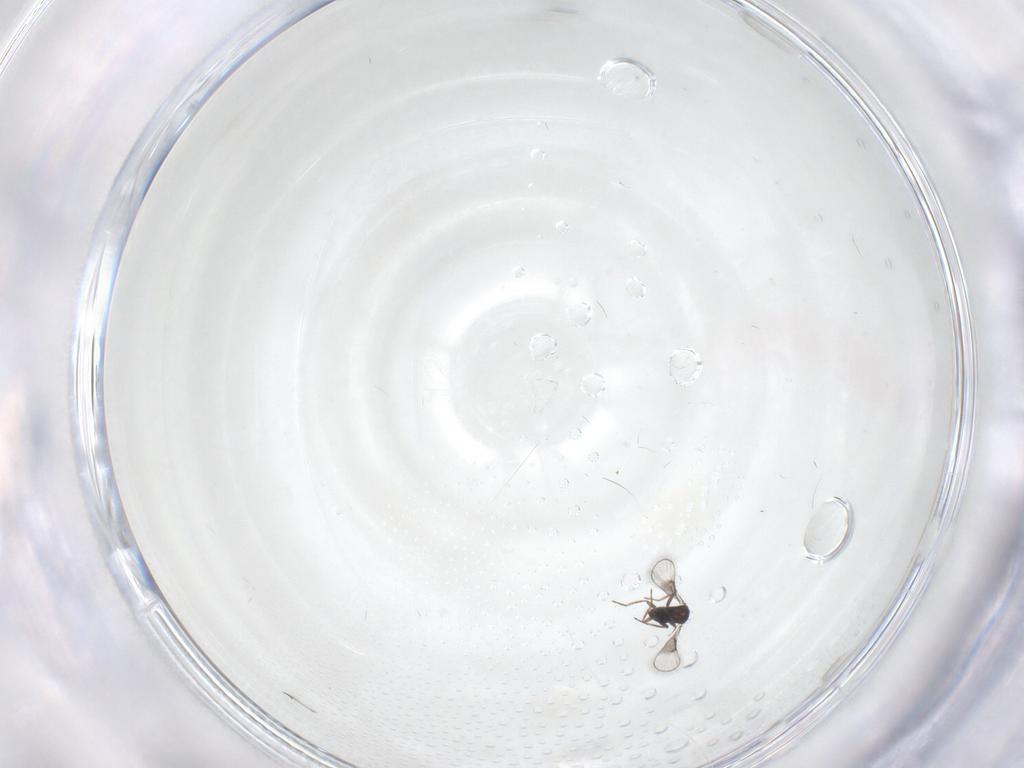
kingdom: Animalia
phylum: Arthropoda
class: Insecta
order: Hymenoptera
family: Trichogrammatidae
